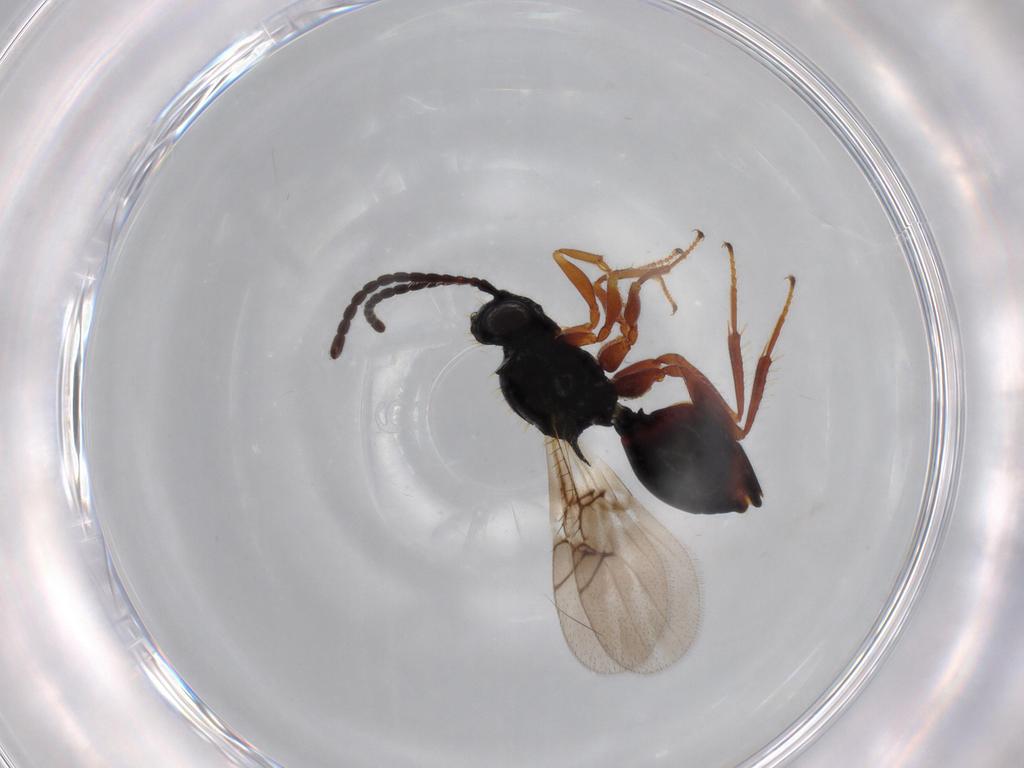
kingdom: Animalia
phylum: Arthropoda
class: Insecta
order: Hymenoptera
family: Figitidae
